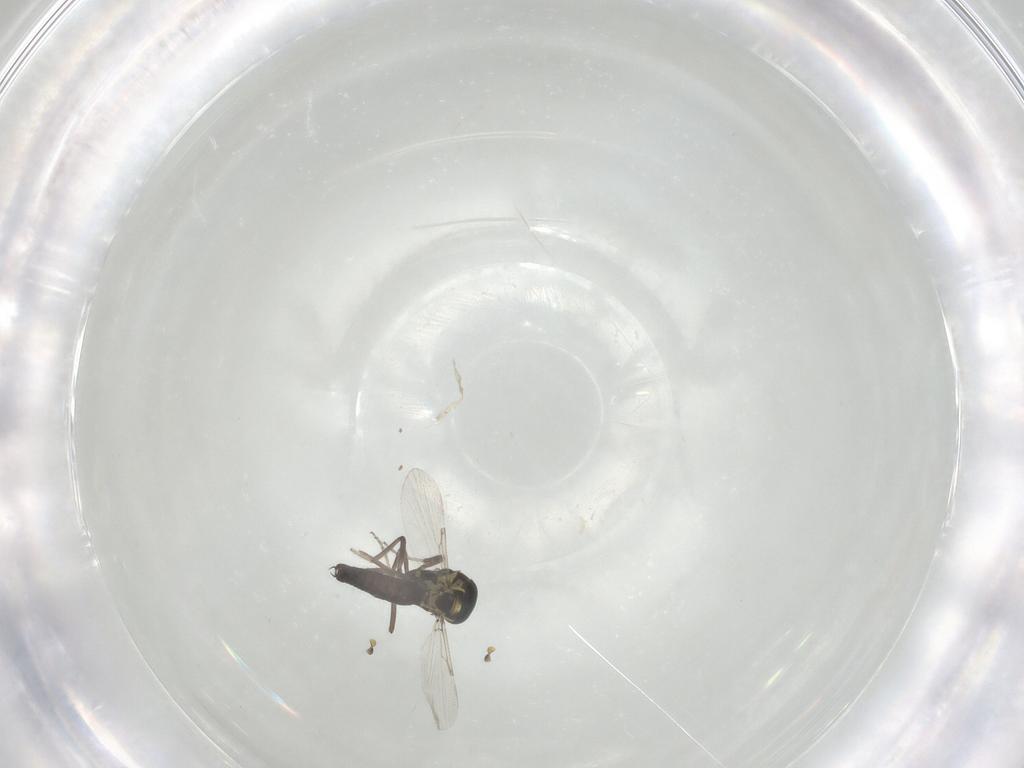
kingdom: Animalia
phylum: Arthropoda
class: Insecta
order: Diptera
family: Ceratopogonidae
